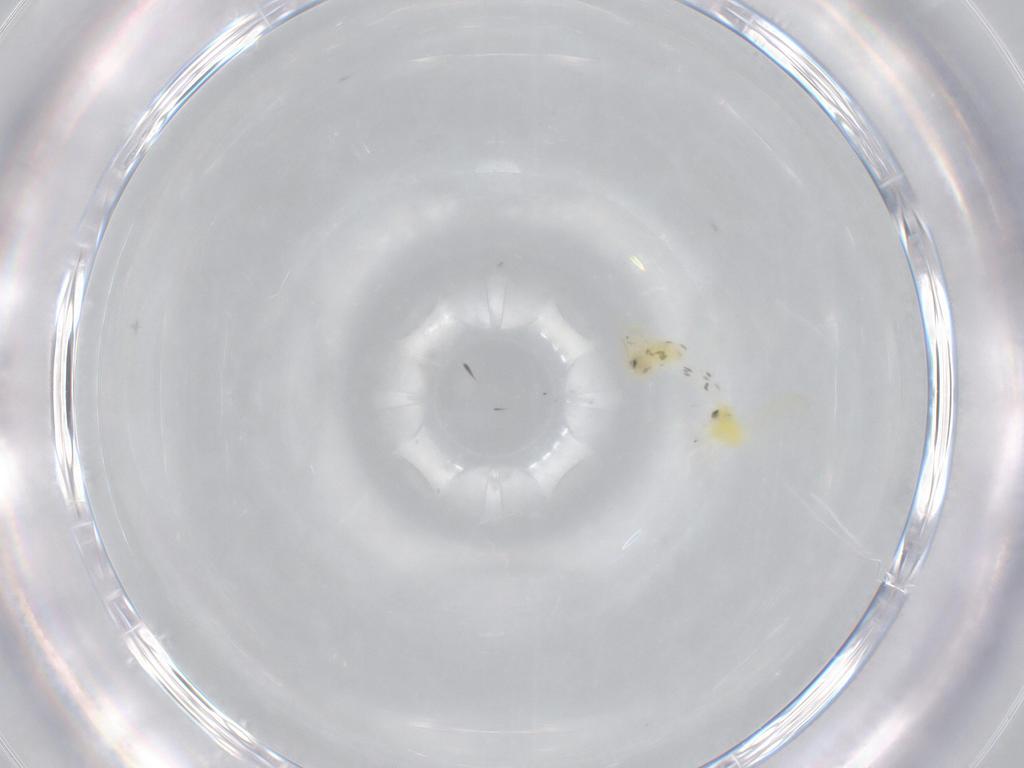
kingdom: Animalia
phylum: Arthropoda
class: Insecta
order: Hemiptera
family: Aleyrodidae
